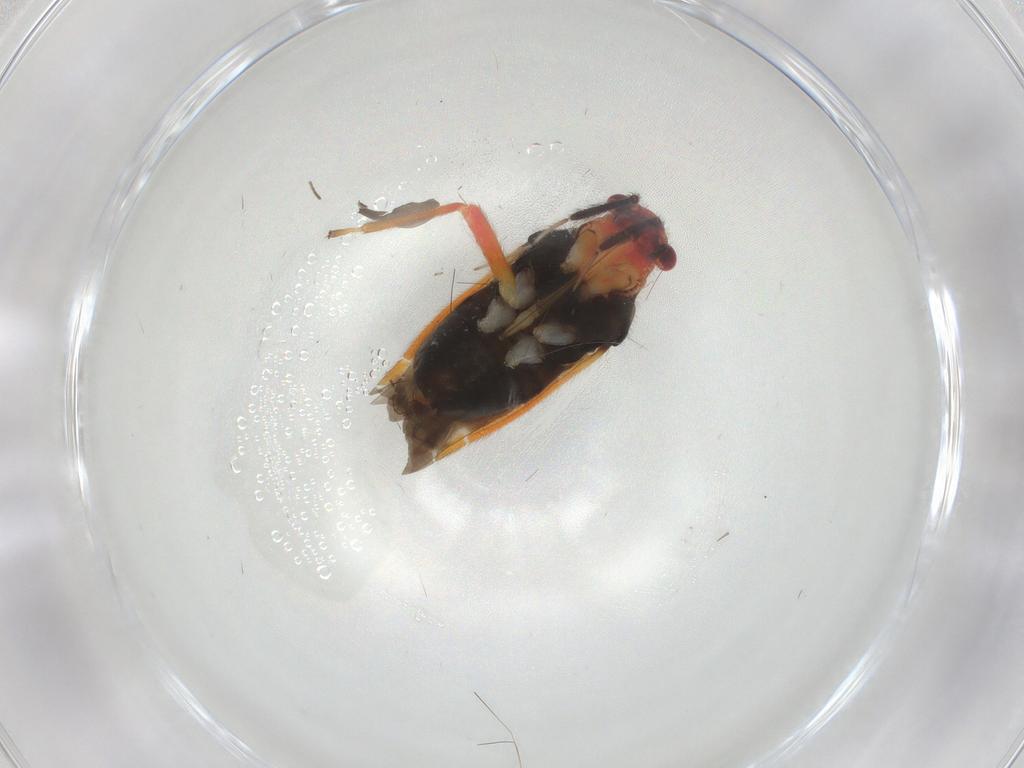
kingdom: Animalia
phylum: Arthropoda
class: Insecta
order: Hemiptera
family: Miridae
